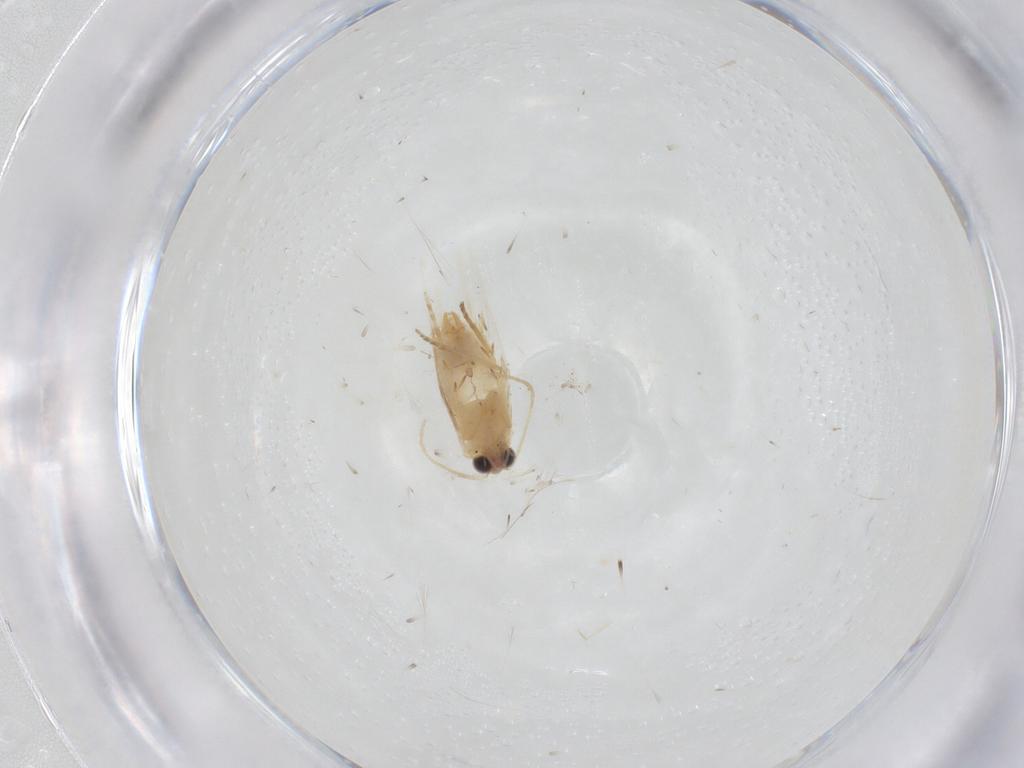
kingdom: Animalia
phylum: Arthropoda
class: Insecta
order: Lepidoptera
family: Nepticulidae
